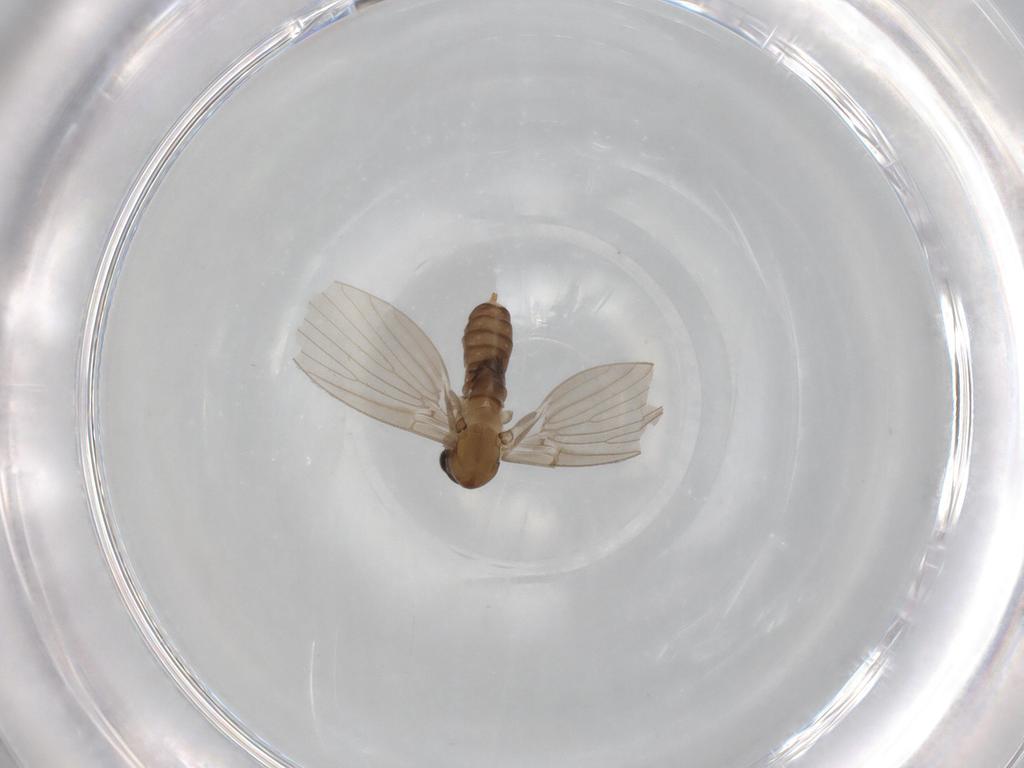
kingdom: Animalia
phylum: Arthropoda
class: Insecta
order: Diptera
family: Psychodidae
